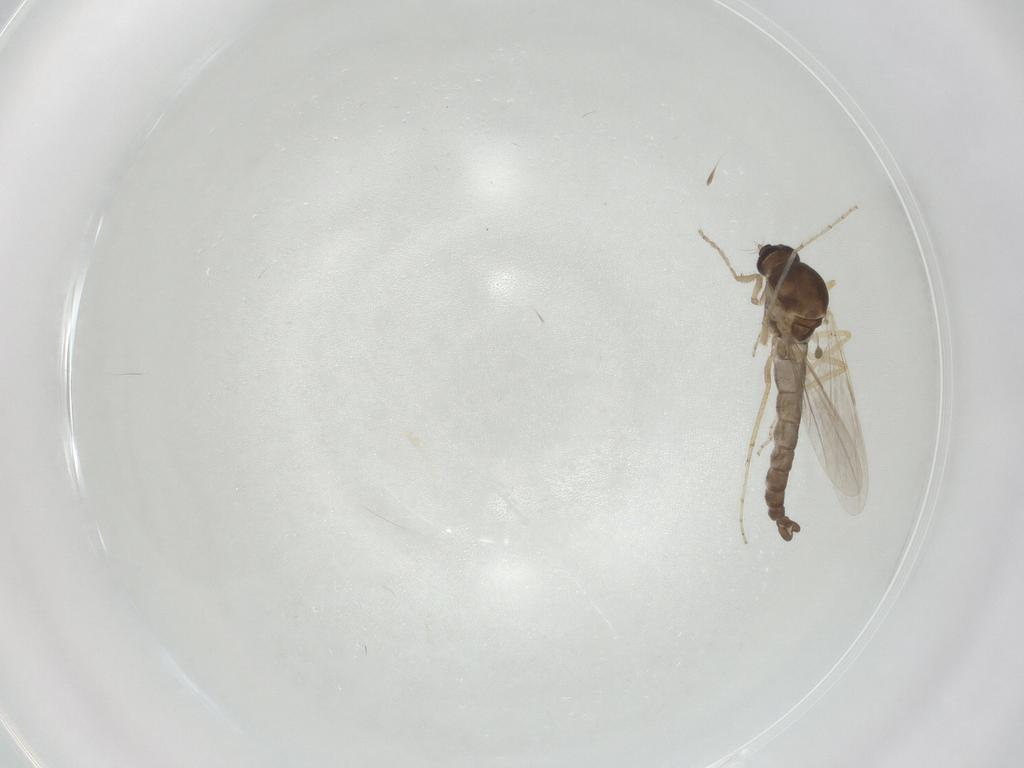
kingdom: Animalia
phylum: Arthropoda
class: Insecta
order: Diptera
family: Ceratopogonidae
